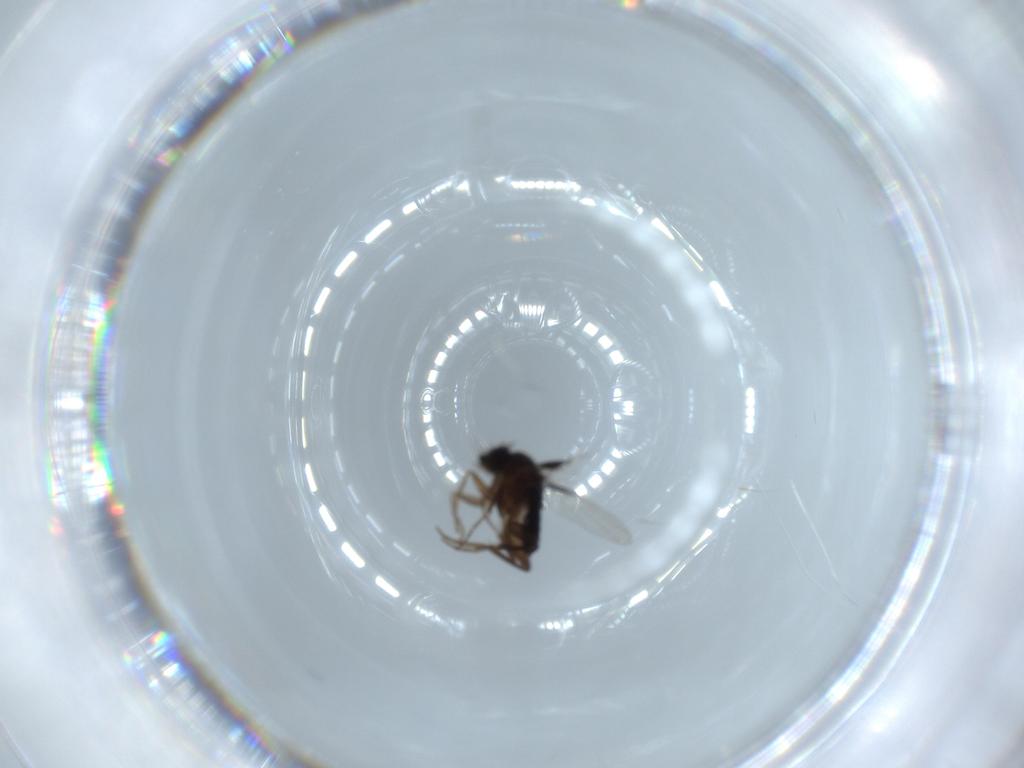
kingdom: Animalia
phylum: Arthropoda
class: Insecta
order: Diptera
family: Phoridae
